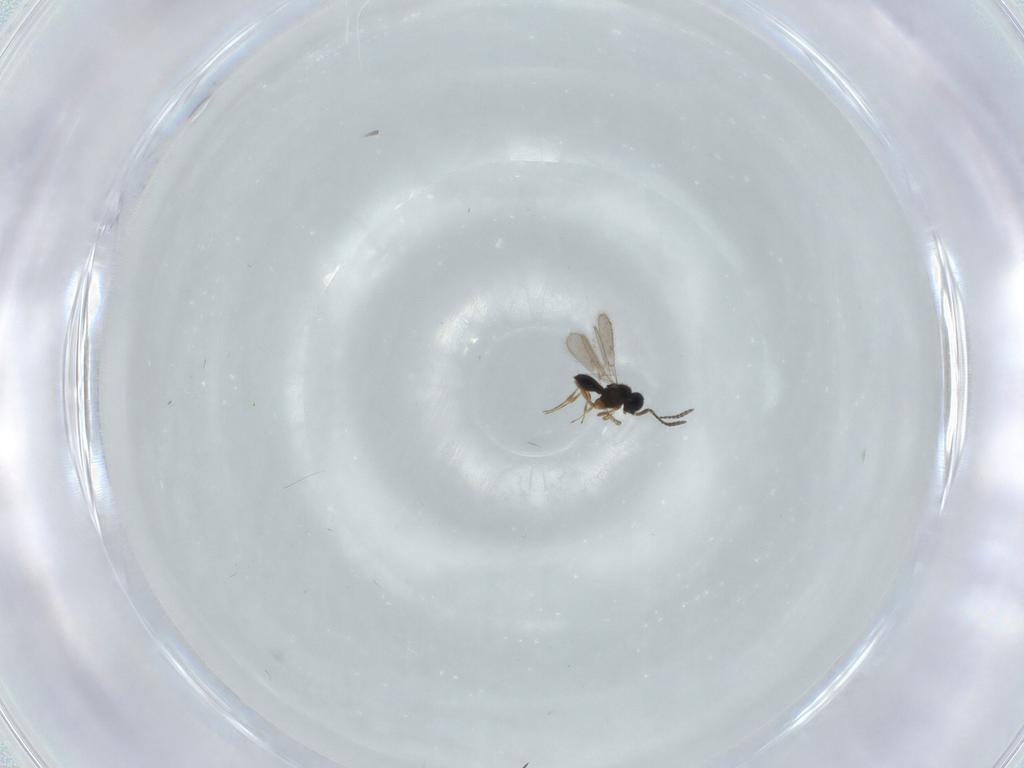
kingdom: Animalia
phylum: Arthropoda
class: Insecta
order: Hymenoptera
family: Scelionidae
